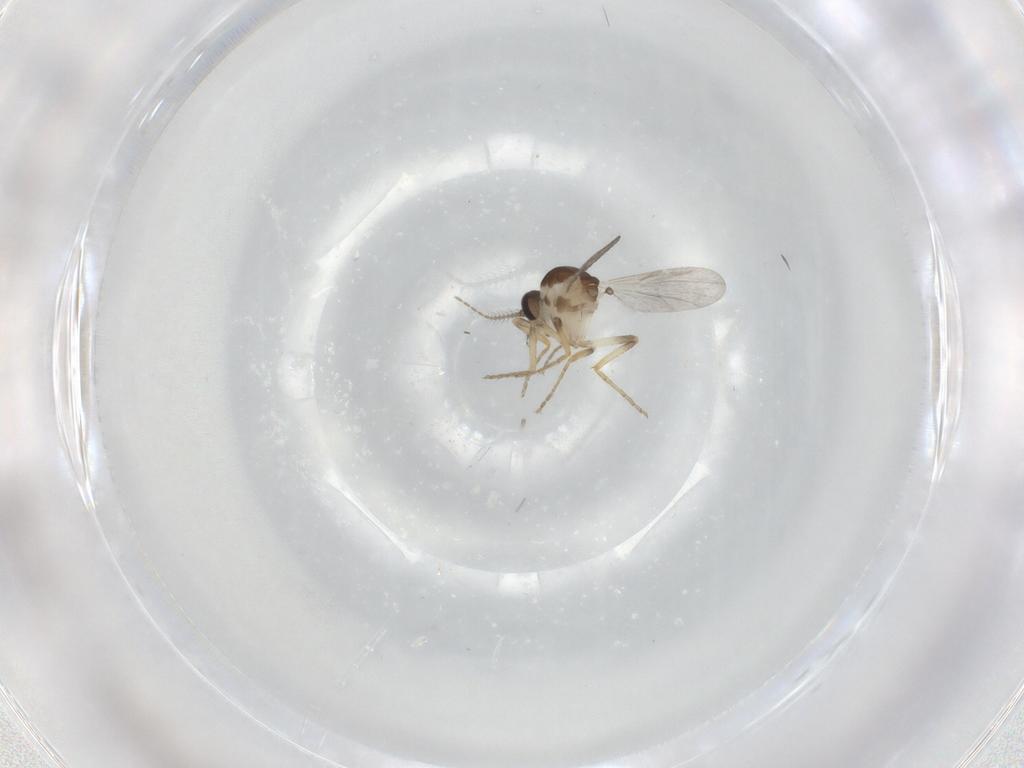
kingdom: Animalia
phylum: Arthropoda
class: Insecta
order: Diptera
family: Ceratopogonidae
